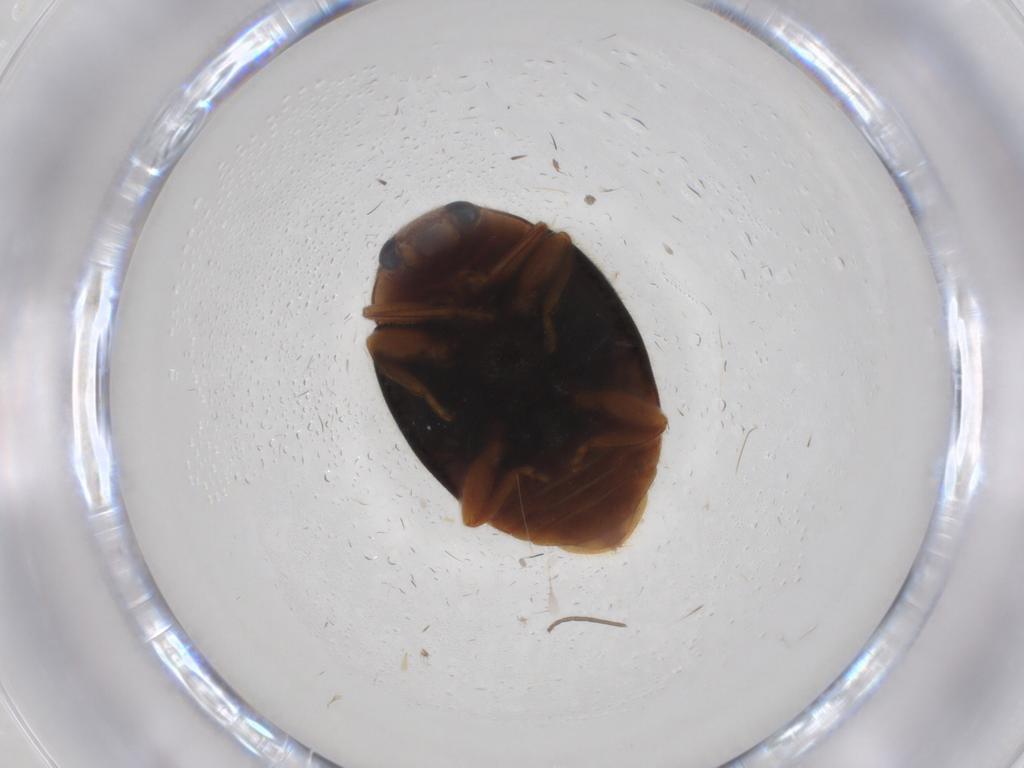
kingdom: Animalia
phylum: Arthropoda
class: Insecta
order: Coleoptera
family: Coccinellidae
